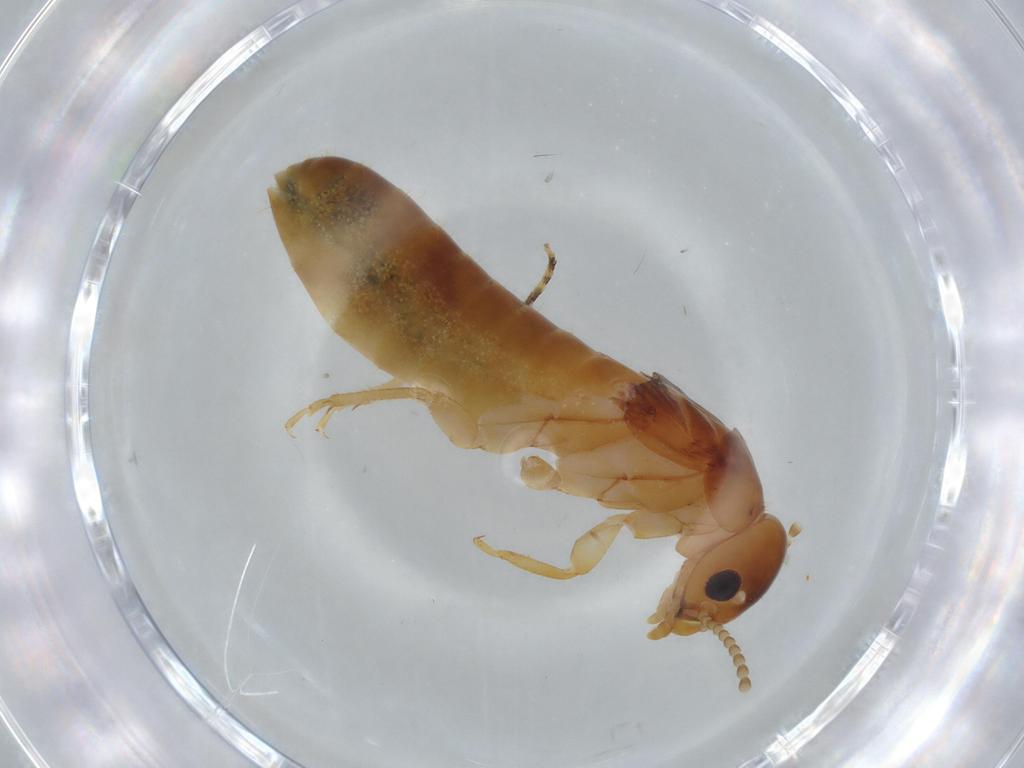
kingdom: Animalia
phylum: Arthropoda
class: Insecta
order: Blattodea
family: Kalotermitidae
